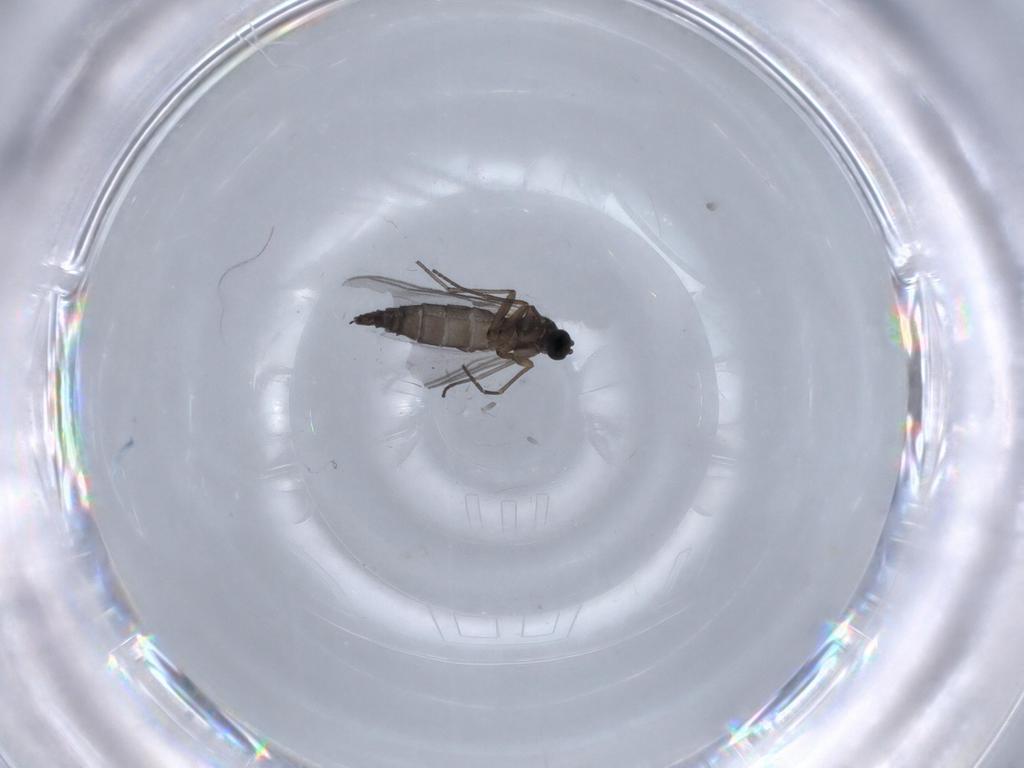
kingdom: Animalia
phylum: Arthropoda
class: Insecta
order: Diptera
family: Sciaridae
